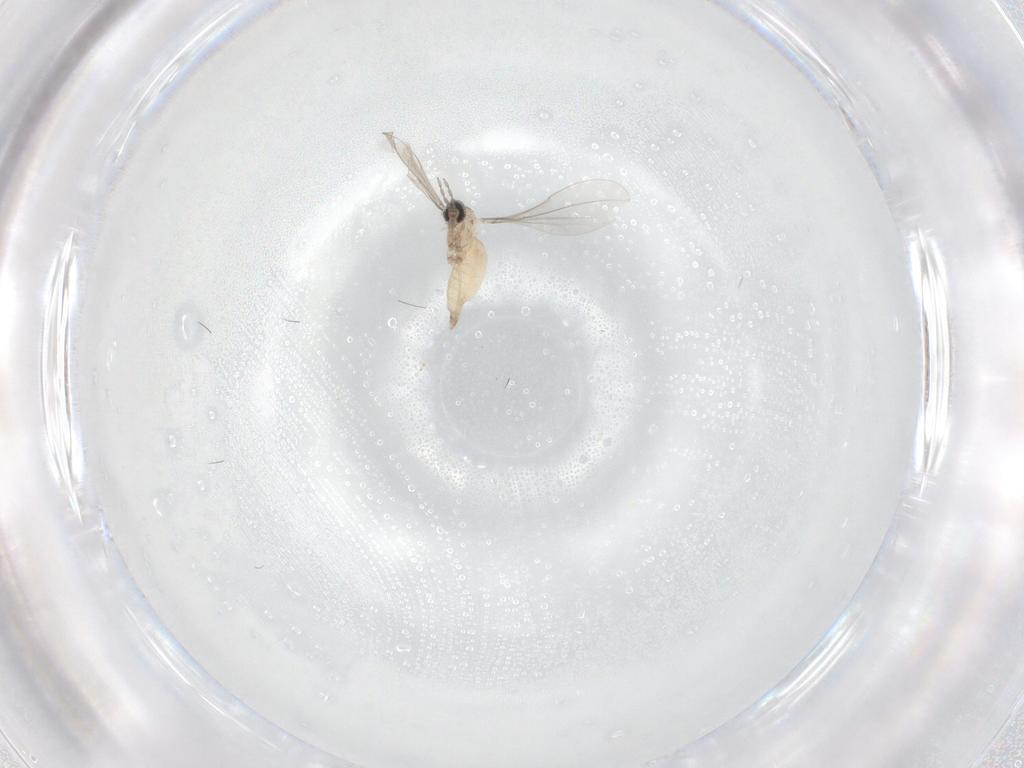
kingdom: Animalia
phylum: Arthropoda
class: Insecta
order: Diptera
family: Cecidomyiidae
